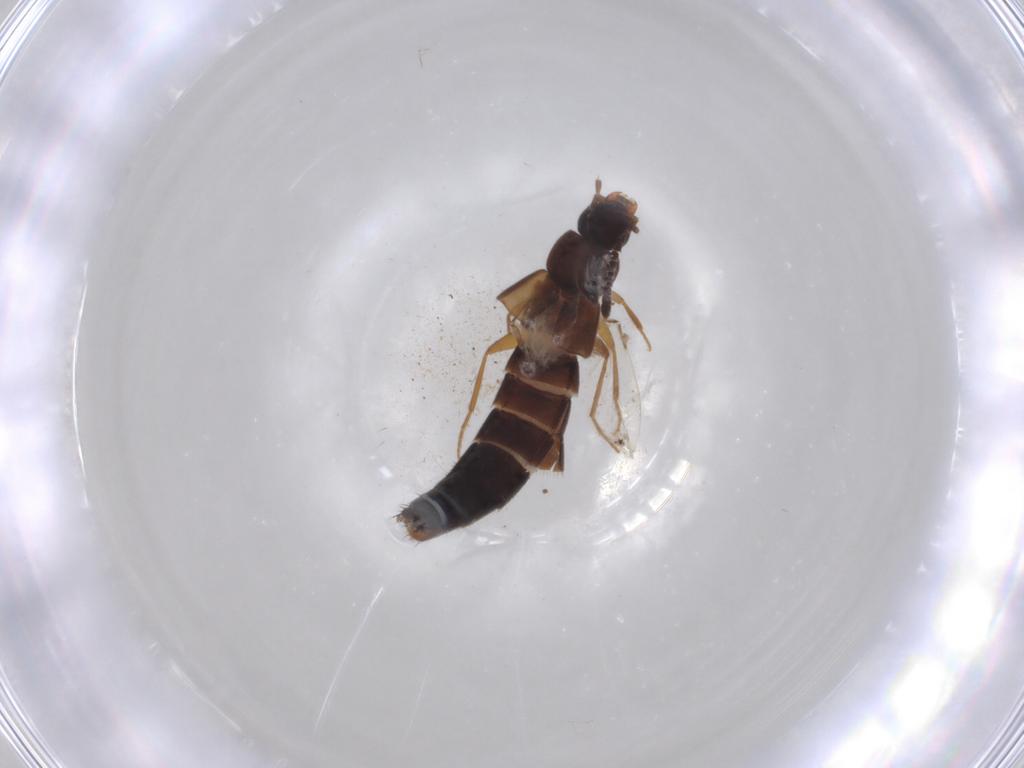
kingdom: Animalia
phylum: Arthropoda
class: Insecta
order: Coleoptera
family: Staphylinidae
